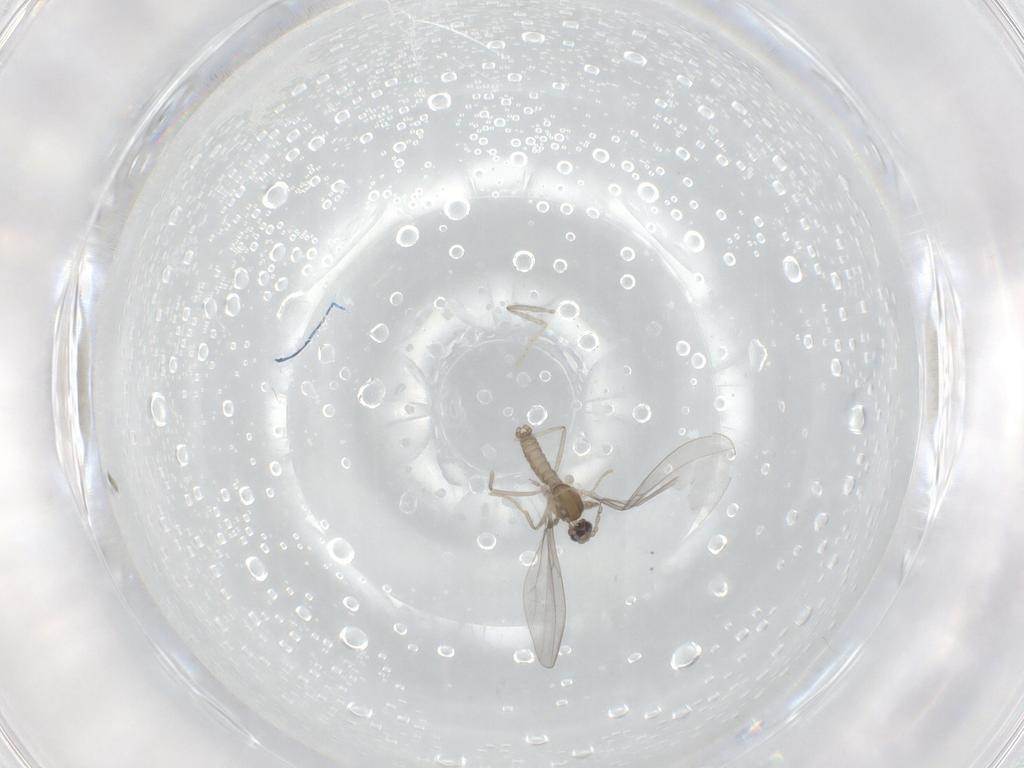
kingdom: Animalia
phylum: Arthropoda
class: Insecta
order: Diptera
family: Cecidomyiidae
